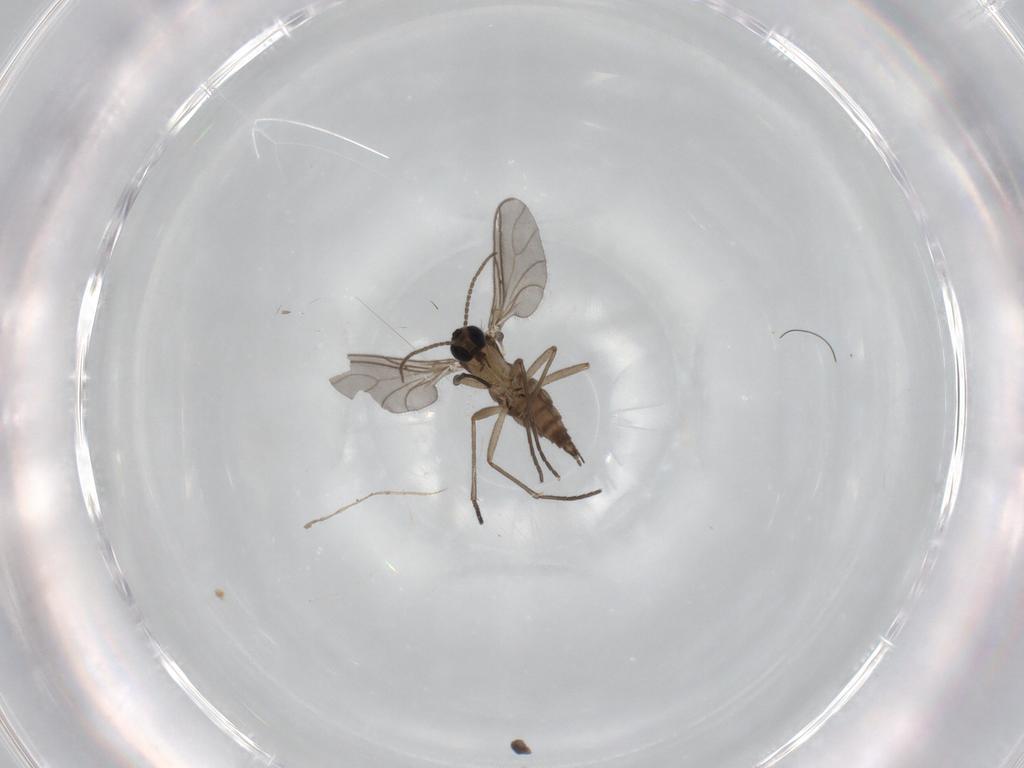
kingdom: Animalia
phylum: Arthropoda
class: Insecta
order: Diptera
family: Sciaridae
